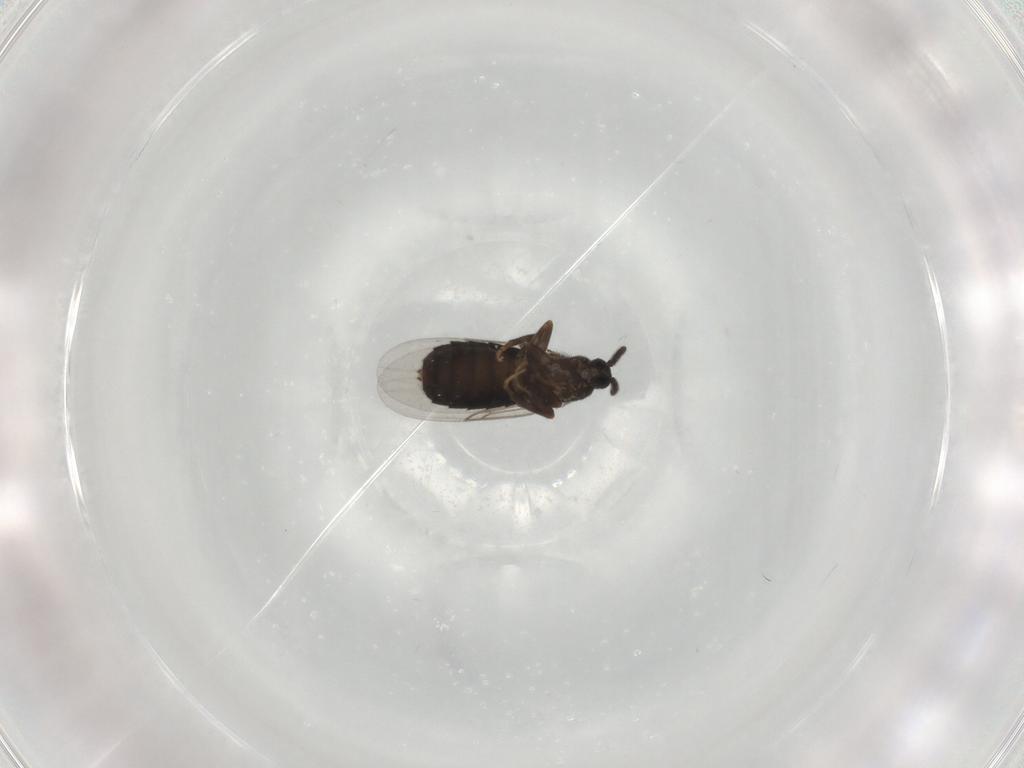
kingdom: Animalia
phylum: Arthropoda
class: Insecta
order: Diptera
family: Scatopsidae
